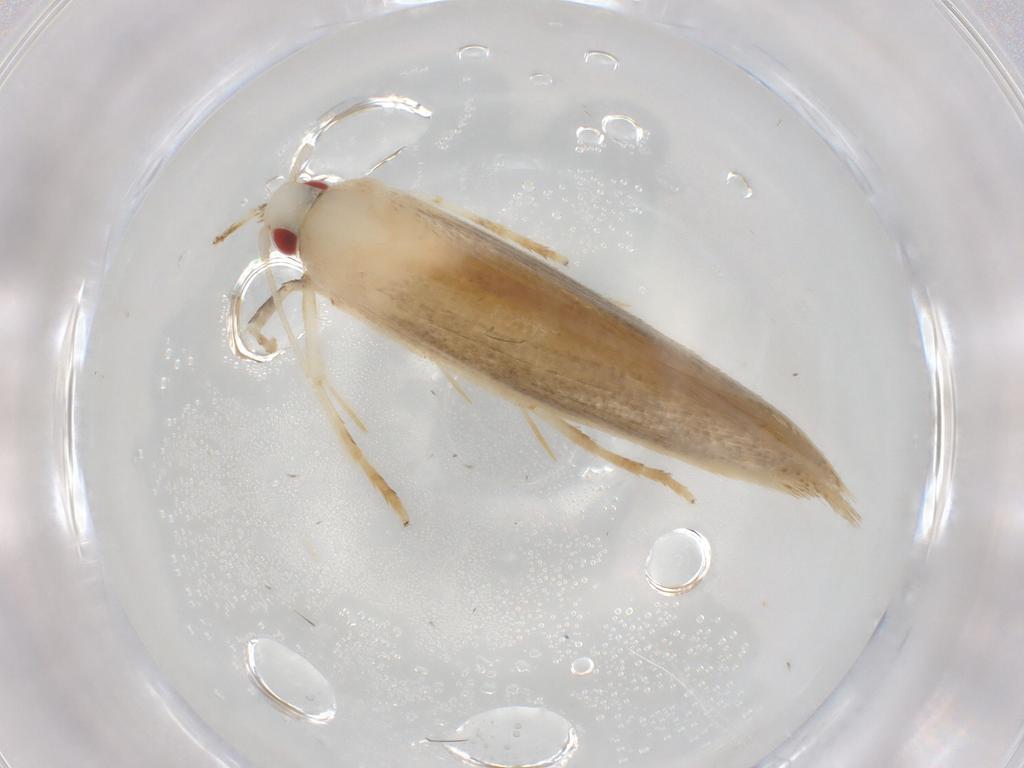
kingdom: Animalia
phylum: Arthropoda
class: Insecta
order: Lepidoptera
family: Cosmopterigidae
